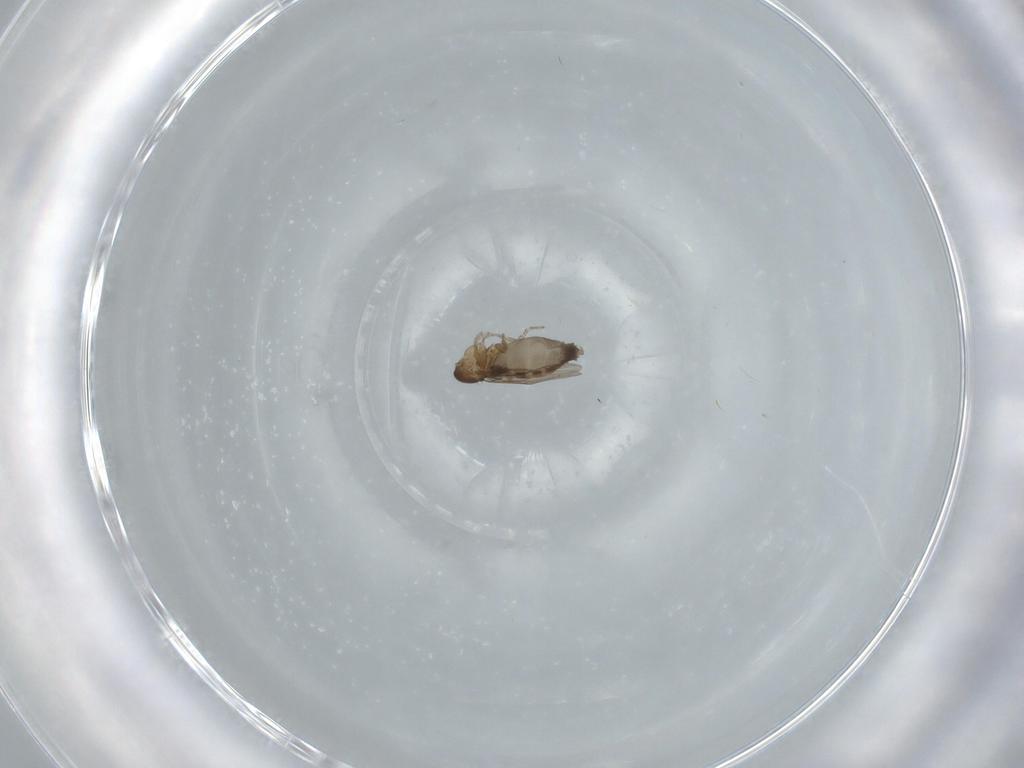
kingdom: Animalia
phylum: Arthropoda
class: Insecta
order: Diptera
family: Phoridae
